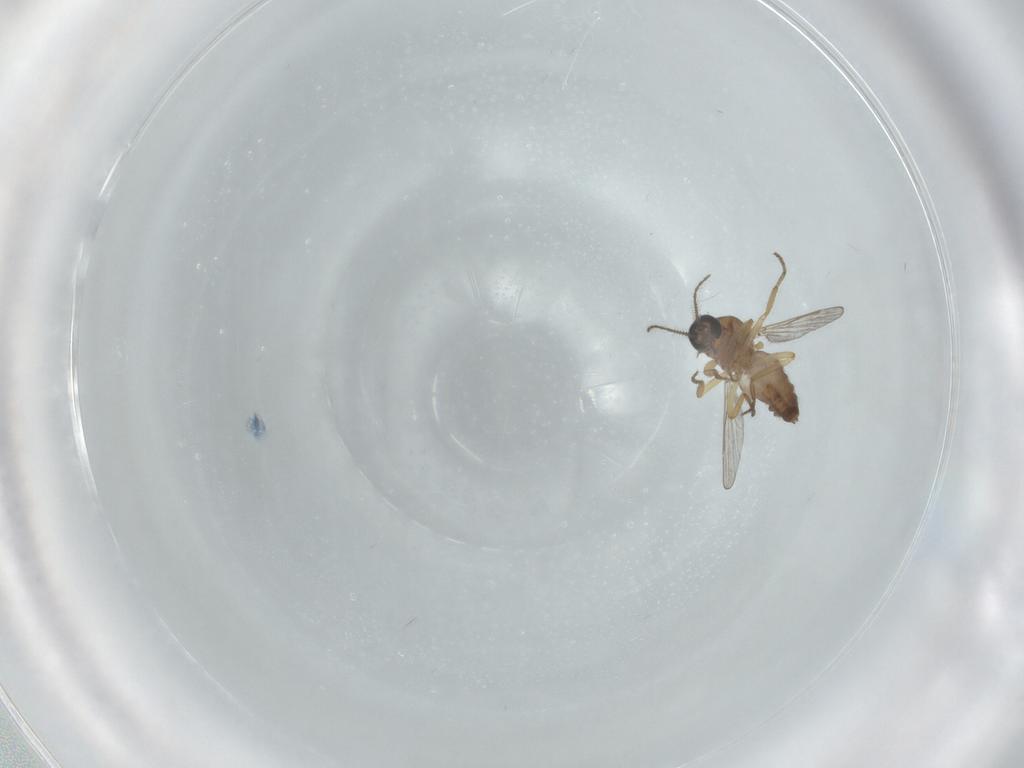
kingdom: Animalia
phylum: Arthropoda
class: Insecta
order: Diptera
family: Ceratopogonidae
